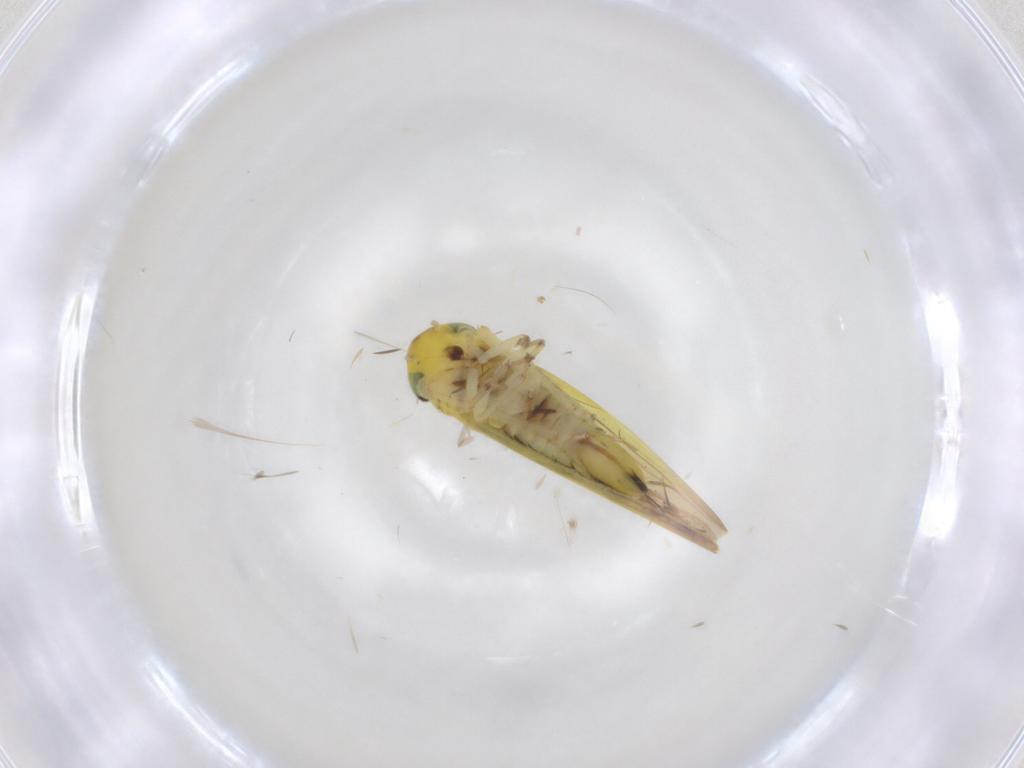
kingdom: Animalia
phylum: Arthropoda
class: Insecta
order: Hemiptera
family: Cicadellidae
